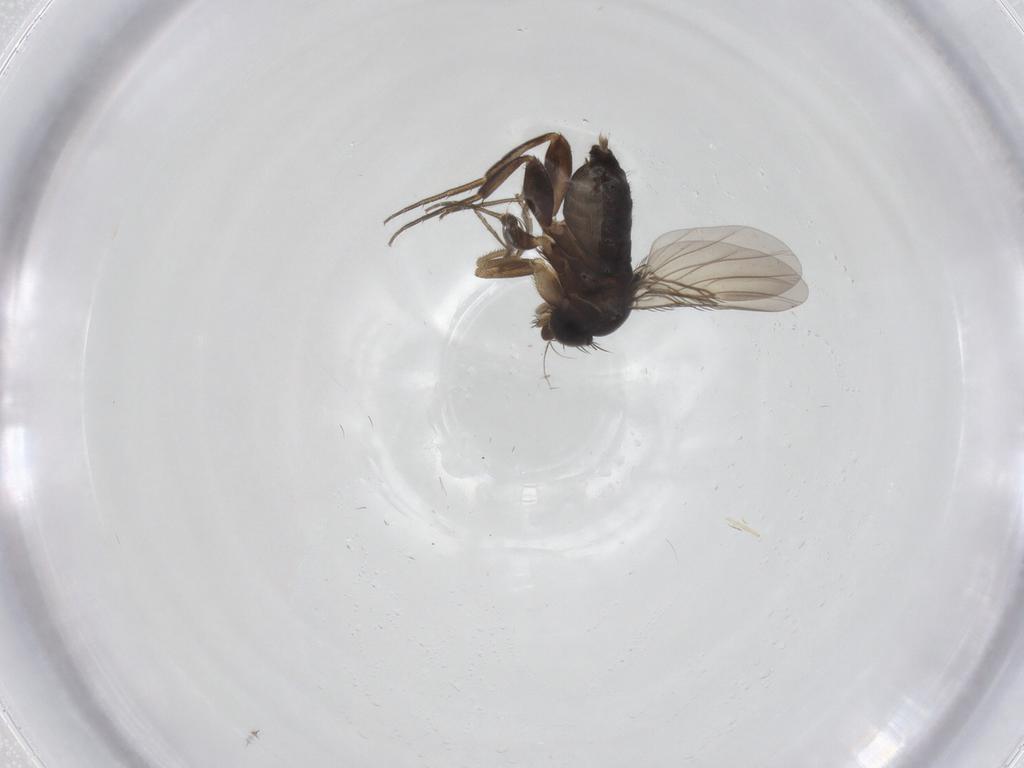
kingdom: Animalia
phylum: Arthropoda
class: Insecta
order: Diptera
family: Phoridae
